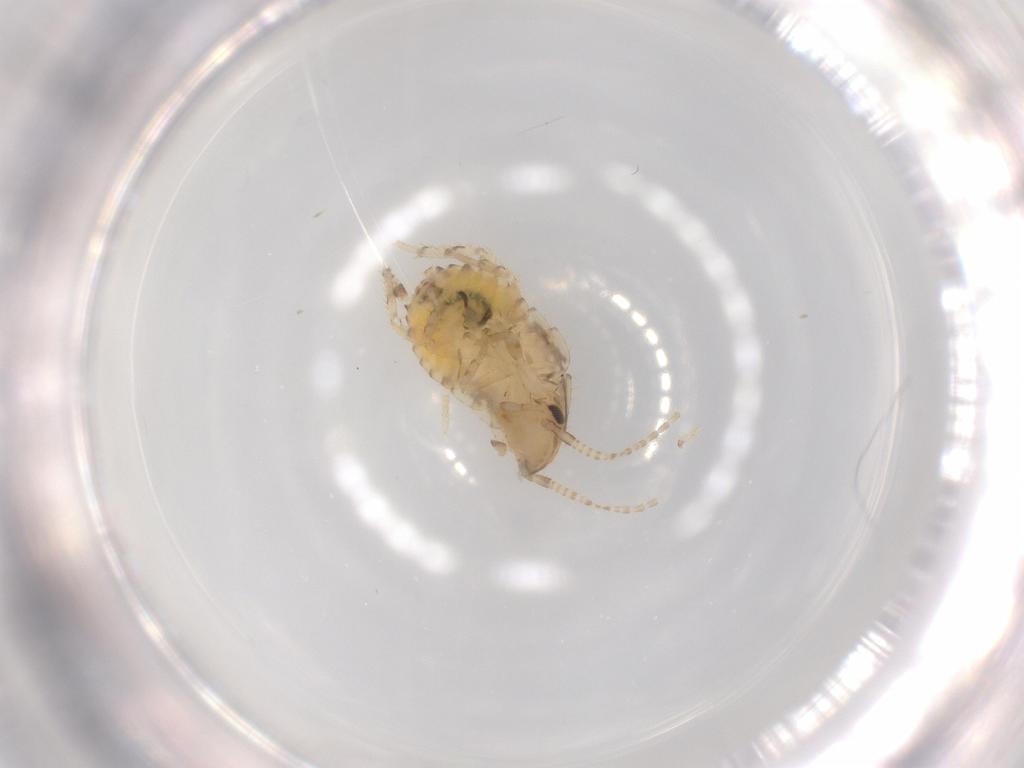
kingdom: Animalia
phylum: Arthropoda
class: Insecta
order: Blattodea
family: Ectobiidae
